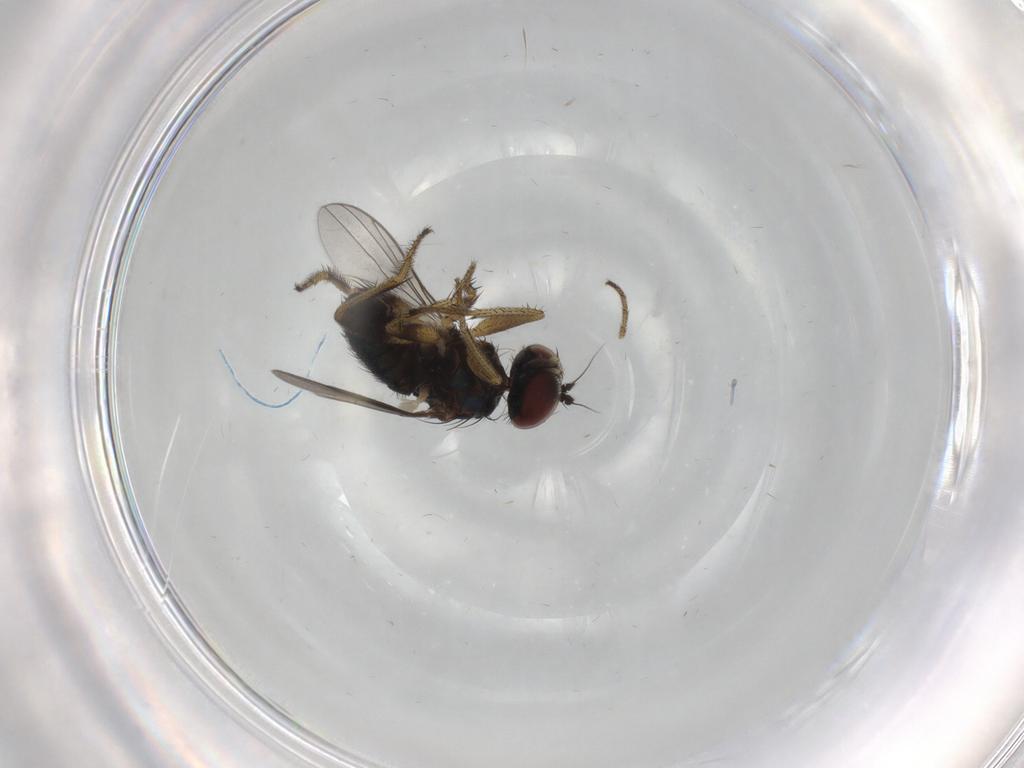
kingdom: Animalia
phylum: Arthropoda
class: Insecta
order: Diptera
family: Dolichopodidae
